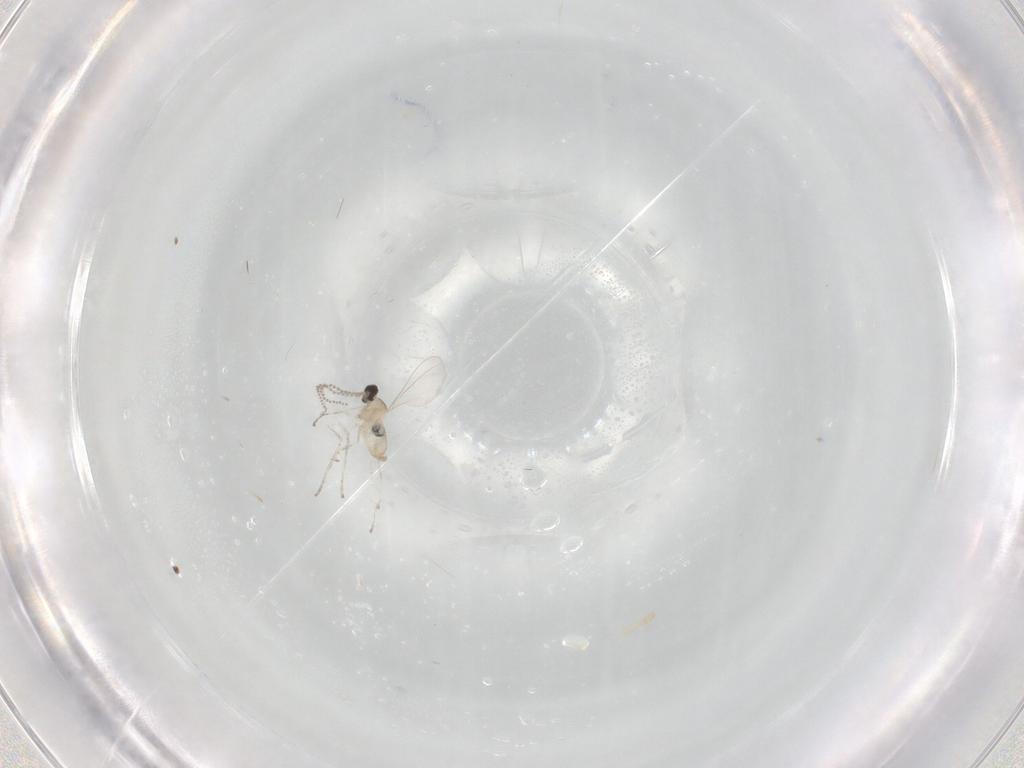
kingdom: Animalia
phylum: Arthropoda
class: Insecta
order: Diptera
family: Cecidomyiidae
